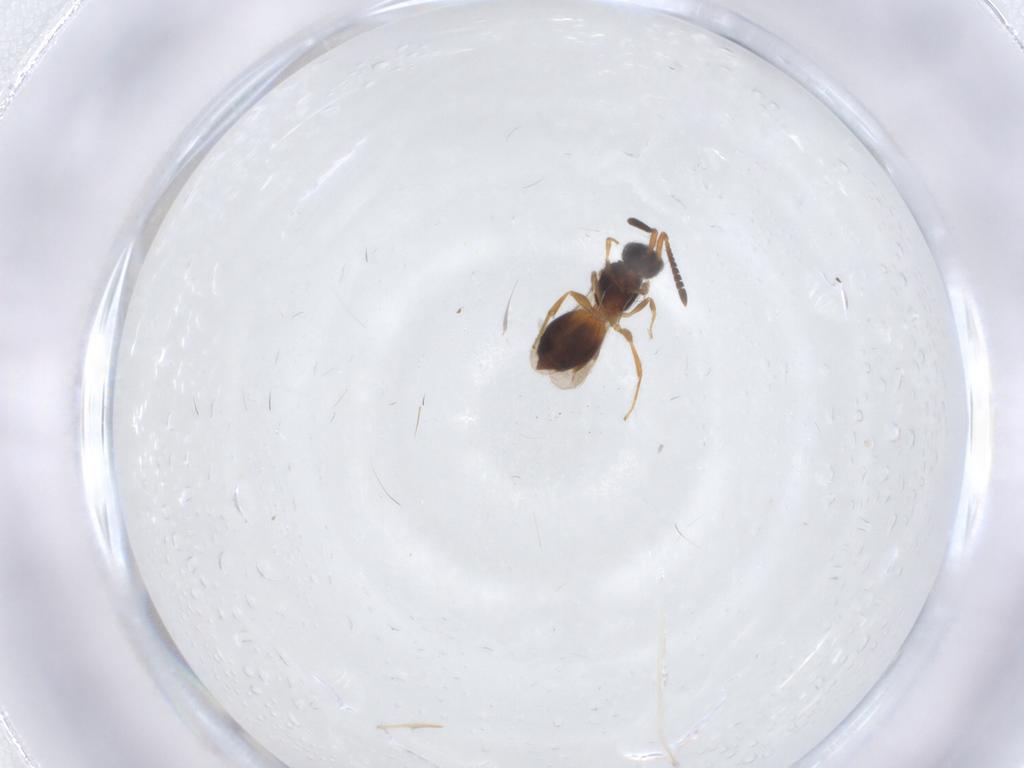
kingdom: Animalia
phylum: Arthropoda
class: Insecta
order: Hymenoptera
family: Megaspilidae
